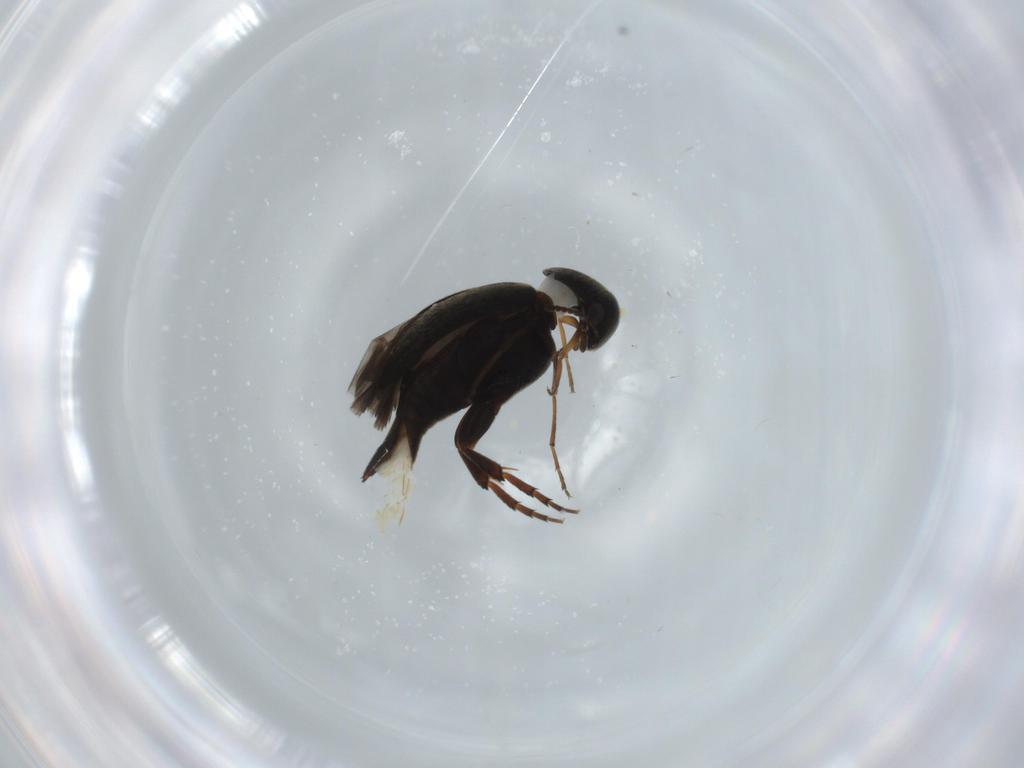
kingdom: Animalia
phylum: Arthropoda
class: Insecta
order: Coleoptera
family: Mordellidae
